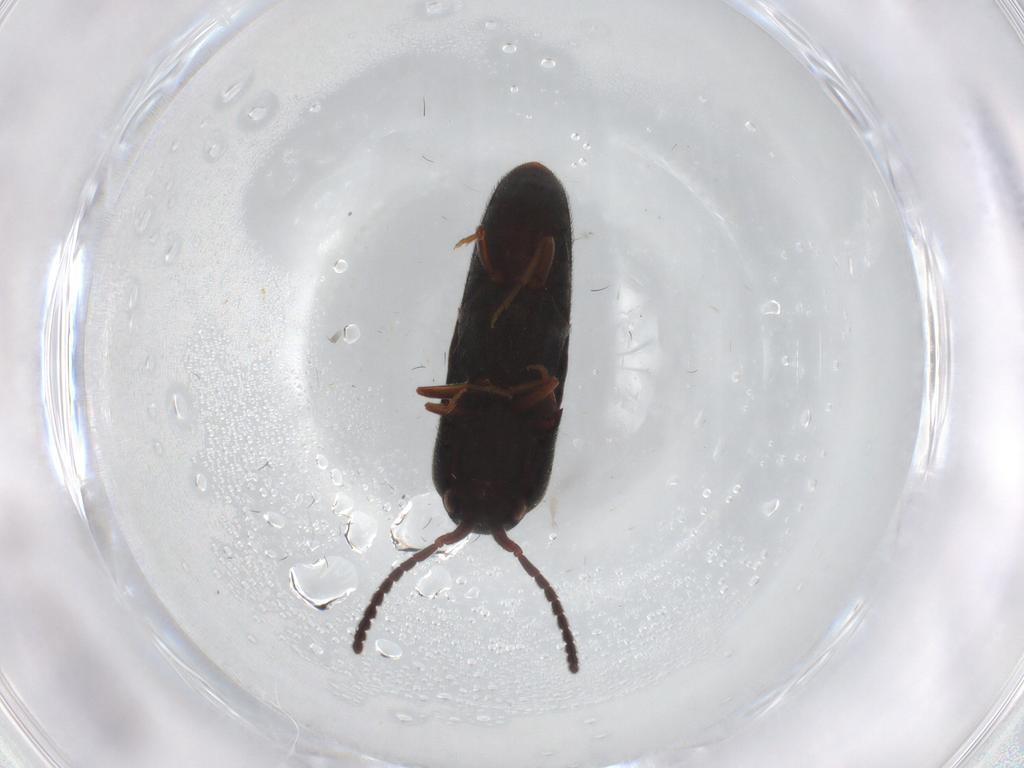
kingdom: Animalia
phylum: Arthropoda
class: Insecta
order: Coleoptera
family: Eucnemidae
